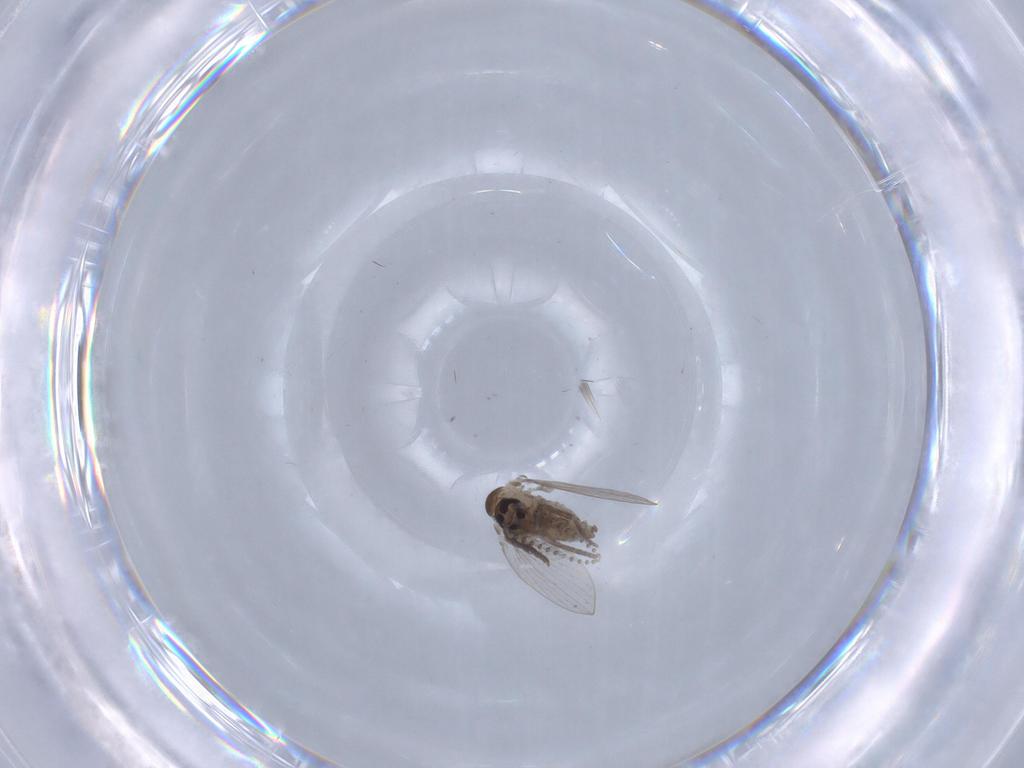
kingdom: Animalia
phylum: Arthropoda
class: Insecta
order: Diptera
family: Psychodidae
